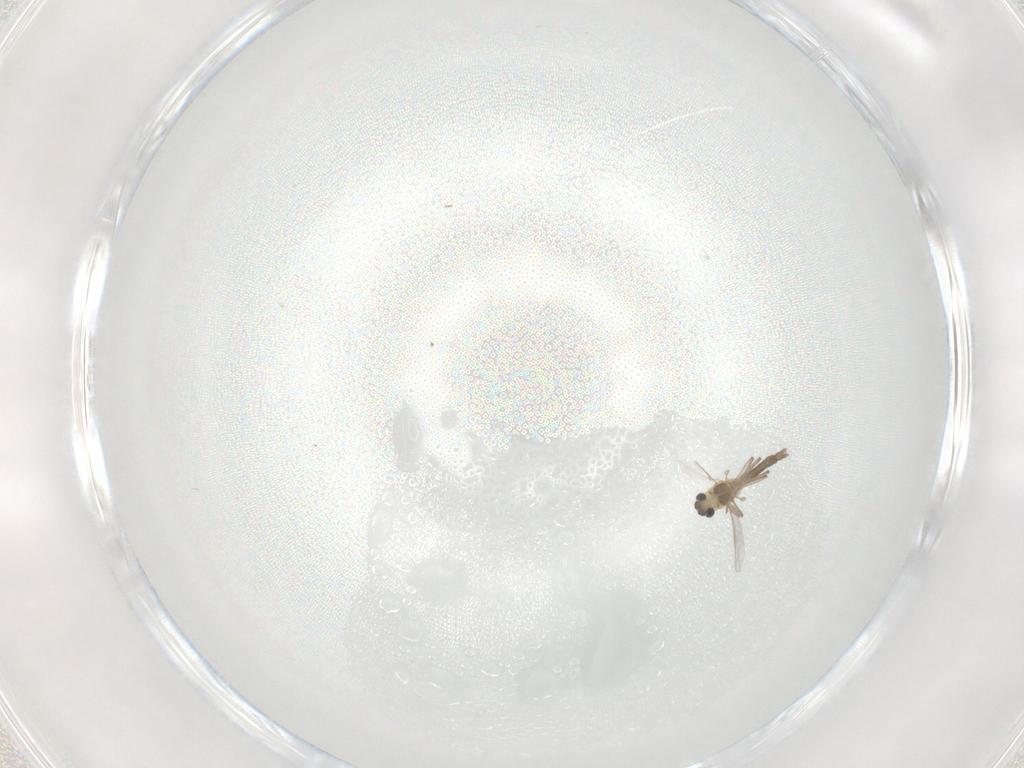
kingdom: Animalia
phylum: Arthropoda
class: Insecta
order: Diptera
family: Chironomidae
